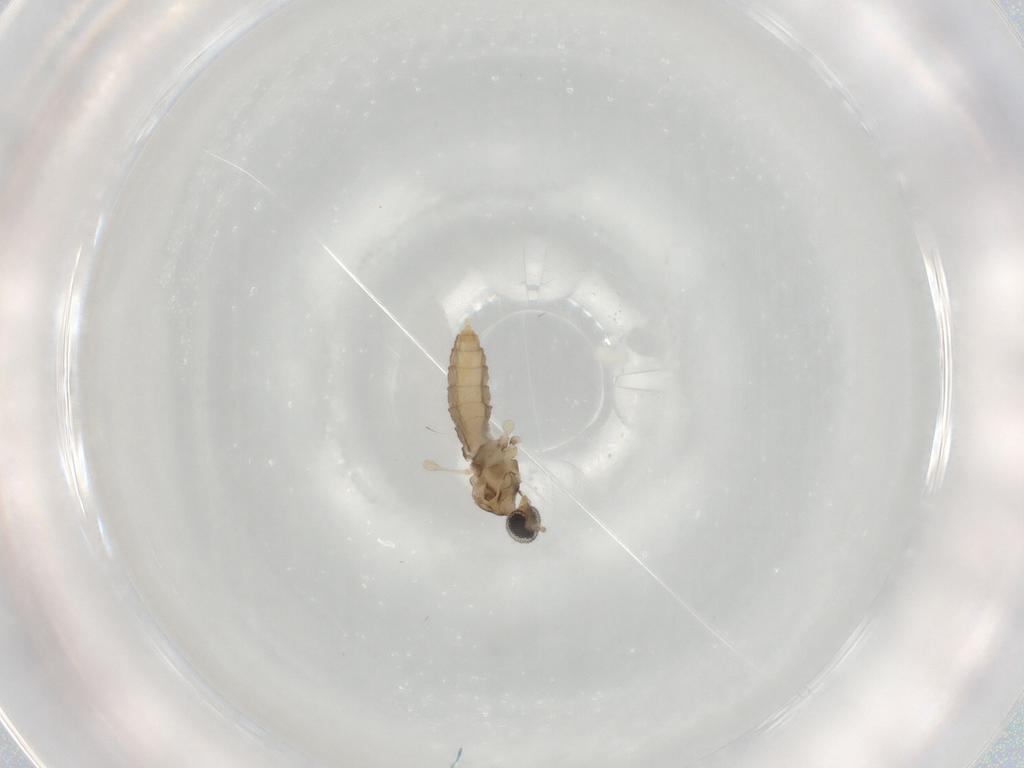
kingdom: Animalia
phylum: Arthropoda
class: Insecta
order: Diptera
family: Cecidomyiidae
